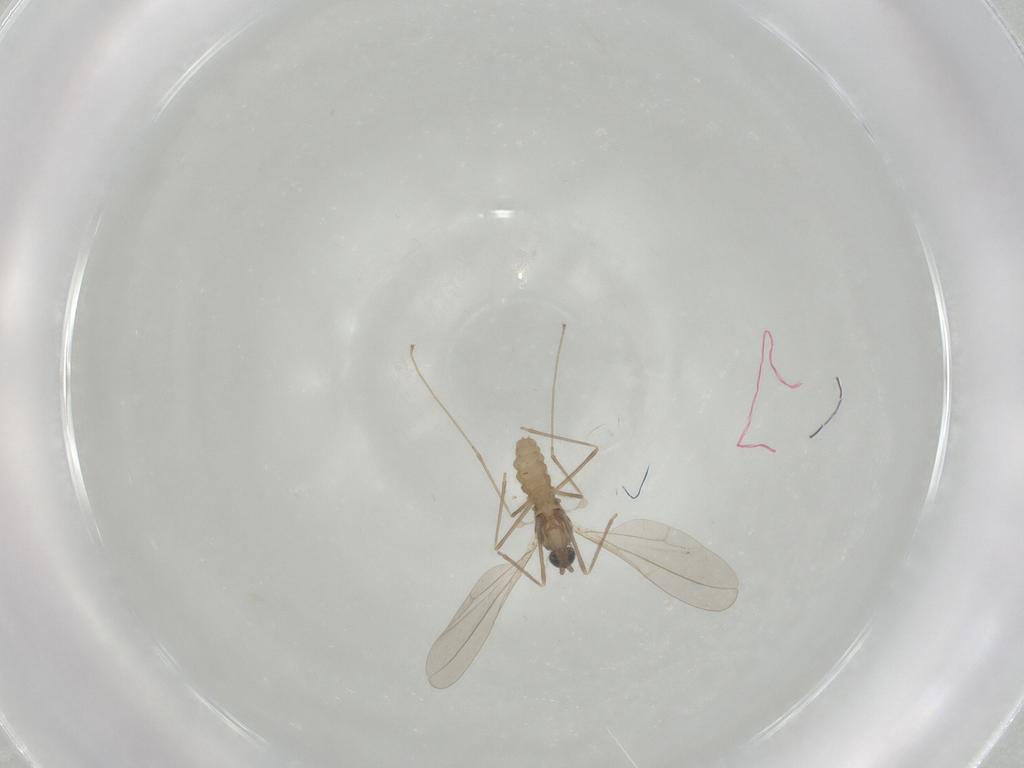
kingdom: Animalia
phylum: Arthropoda
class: Insecta
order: Diptera
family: Cecidomyiidae
